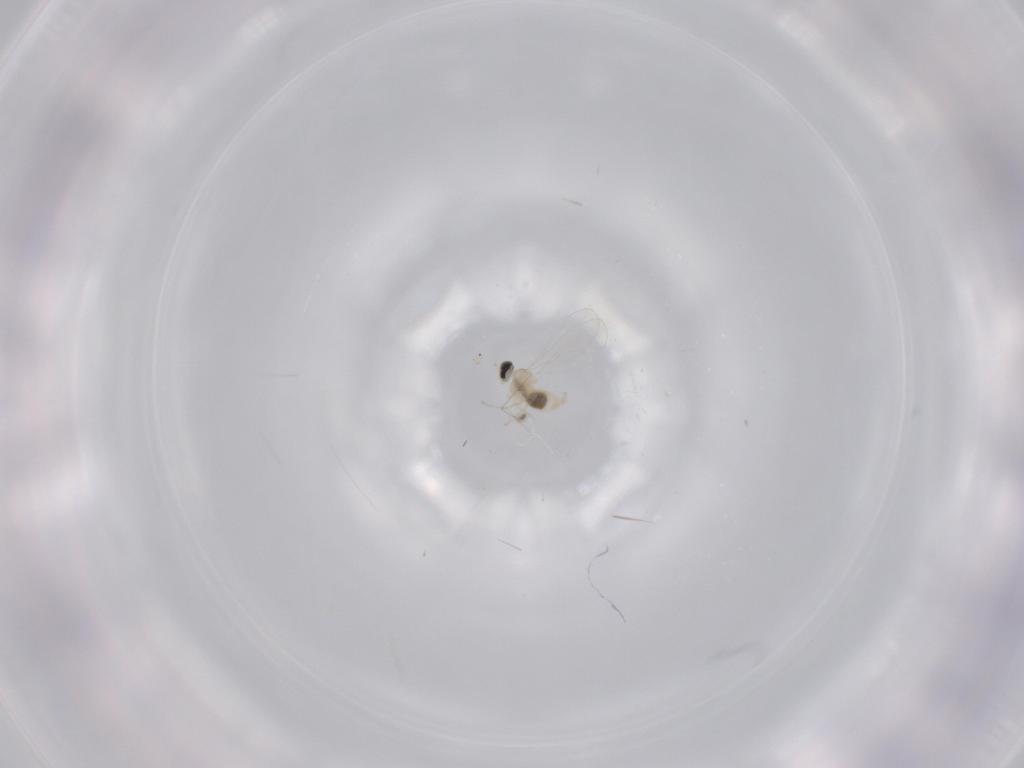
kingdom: Animalia
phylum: Arthropoda
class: Insecta
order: Diptera
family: Cecidomyiidae
